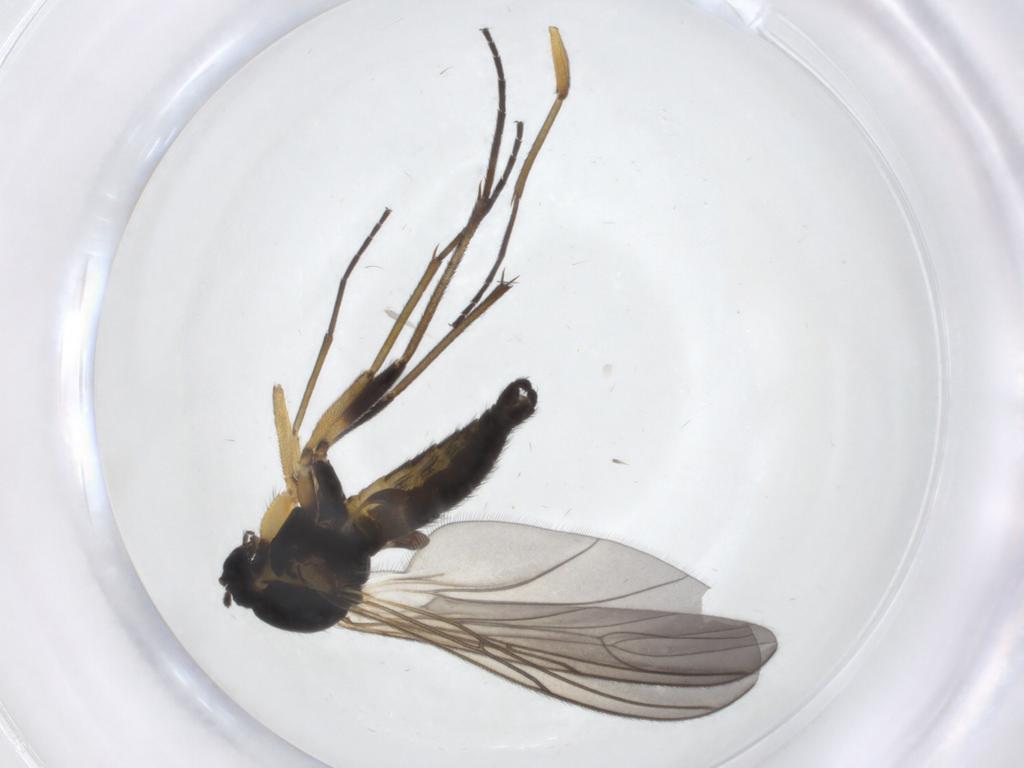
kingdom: Animalia
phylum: Arthropoda
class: Insecta
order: Diptera
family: Sciaridae
